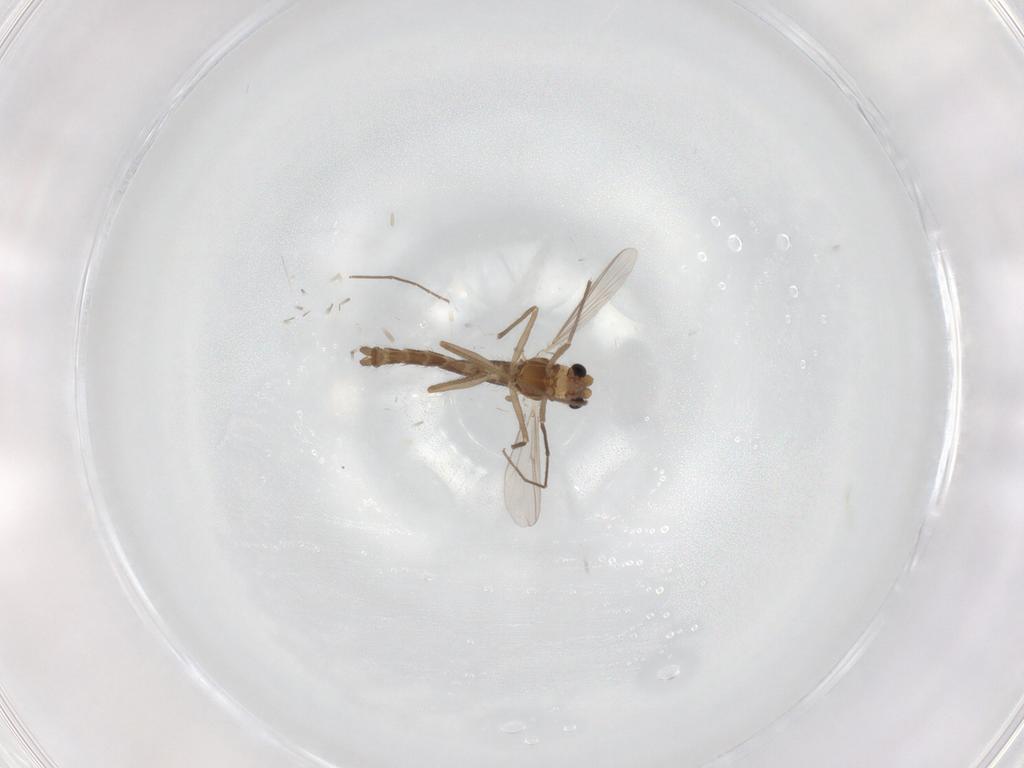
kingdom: Animalia
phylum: Arthropoda
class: Insecta
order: Diptera
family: Chironomidae
